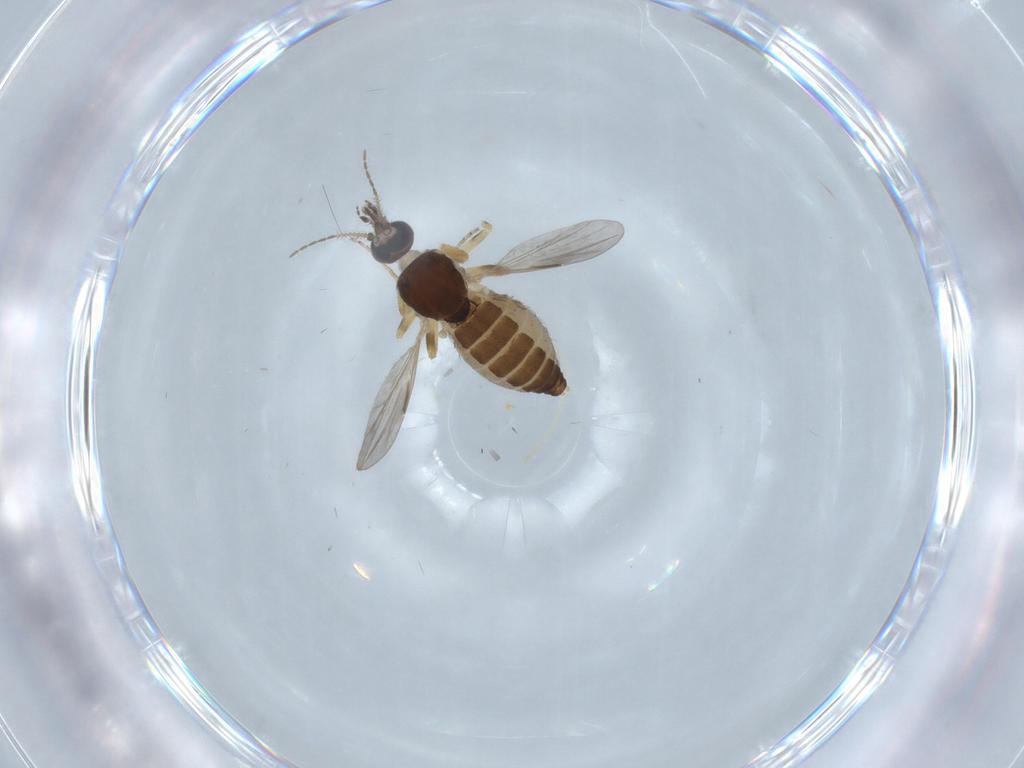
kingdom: Animalia
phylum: Arthropoda
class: Insecta
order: Diptera
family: Ceratopogonidae
